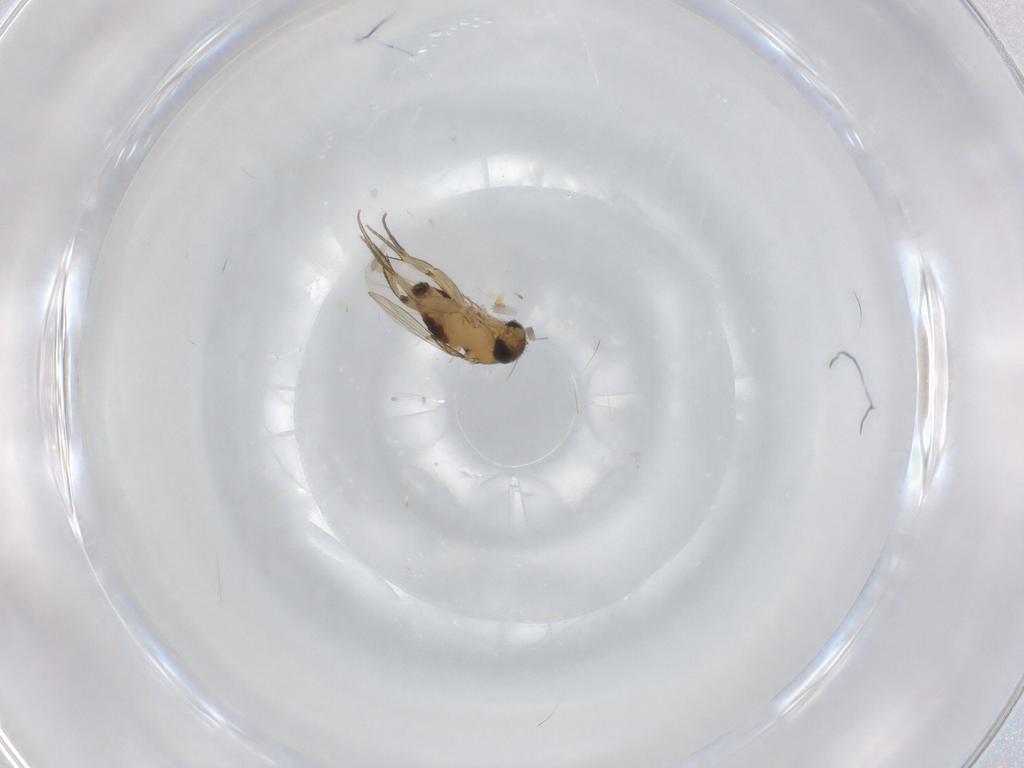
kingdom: Animalia
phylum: Arthropoda
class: Insecta
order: Diptera
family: Phoridae
